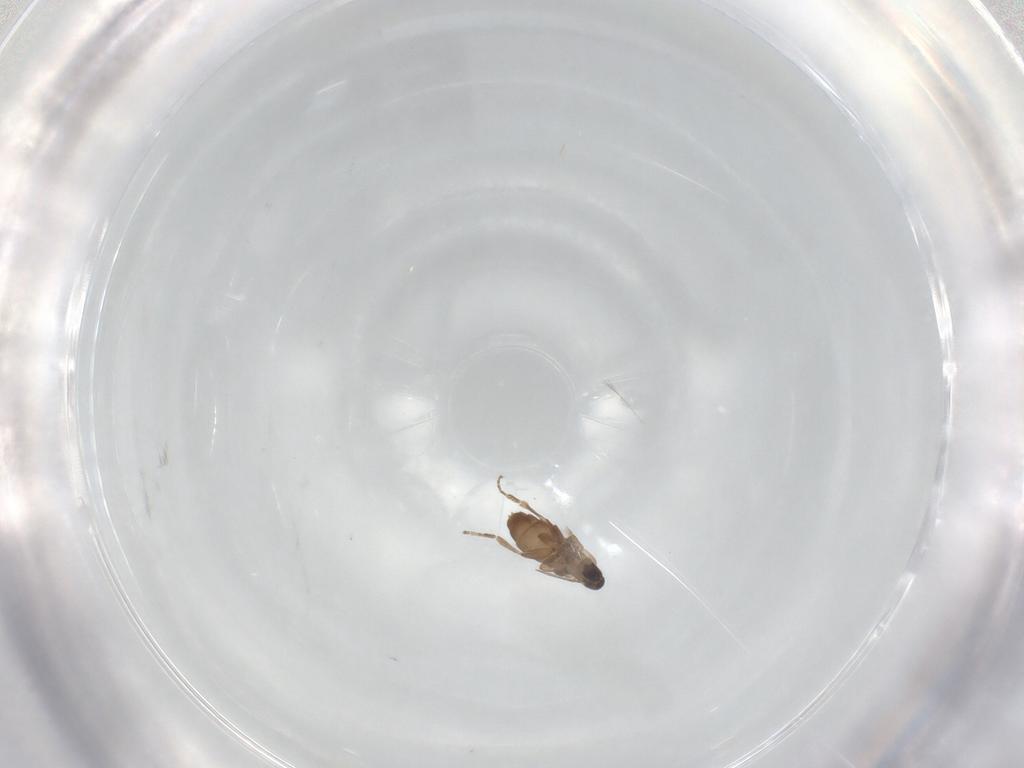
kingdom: Animalia
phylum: Arthropoda
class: Insecta
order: Diptera
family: Phoridae
